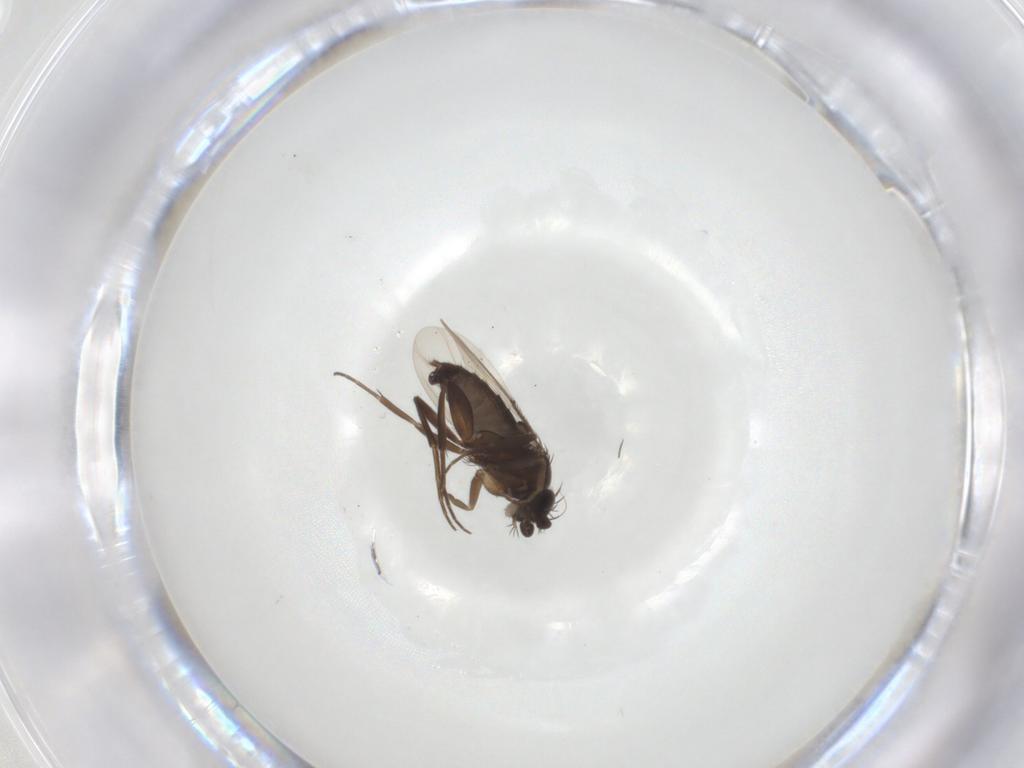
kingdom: Animalia
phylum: Arthropoda
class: Insecta
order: Diptera
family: Phoridae
